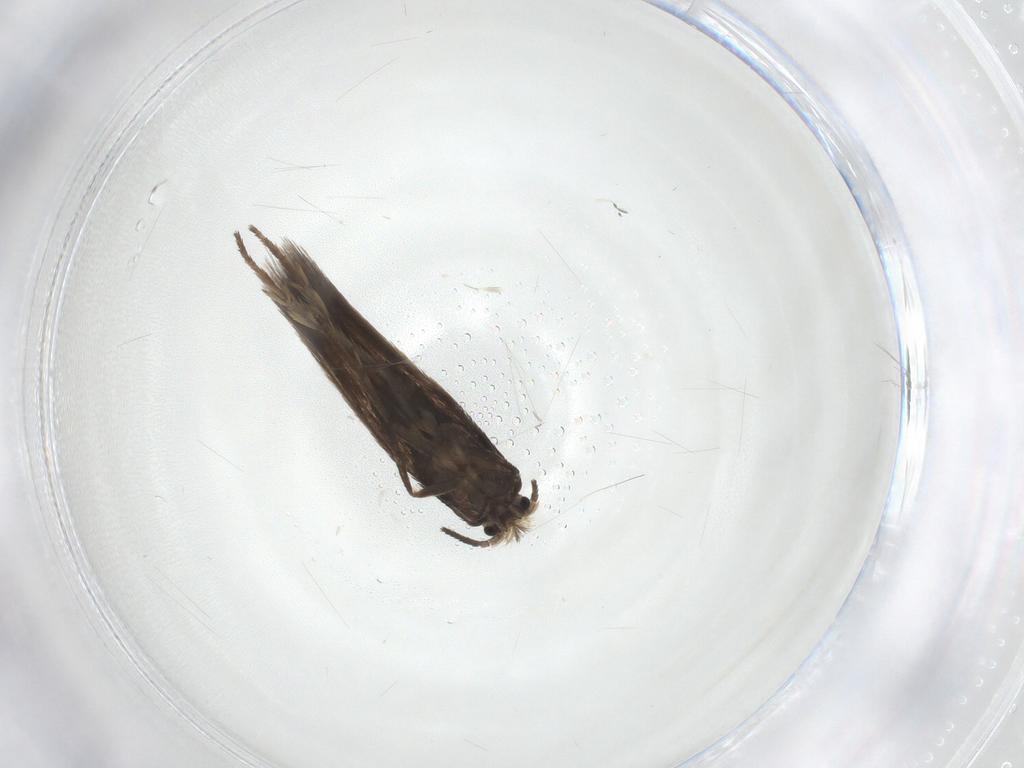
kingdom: Animalia
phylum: Arthropoda
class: Insecta
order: Lepidoptera
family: Nepticulidae
